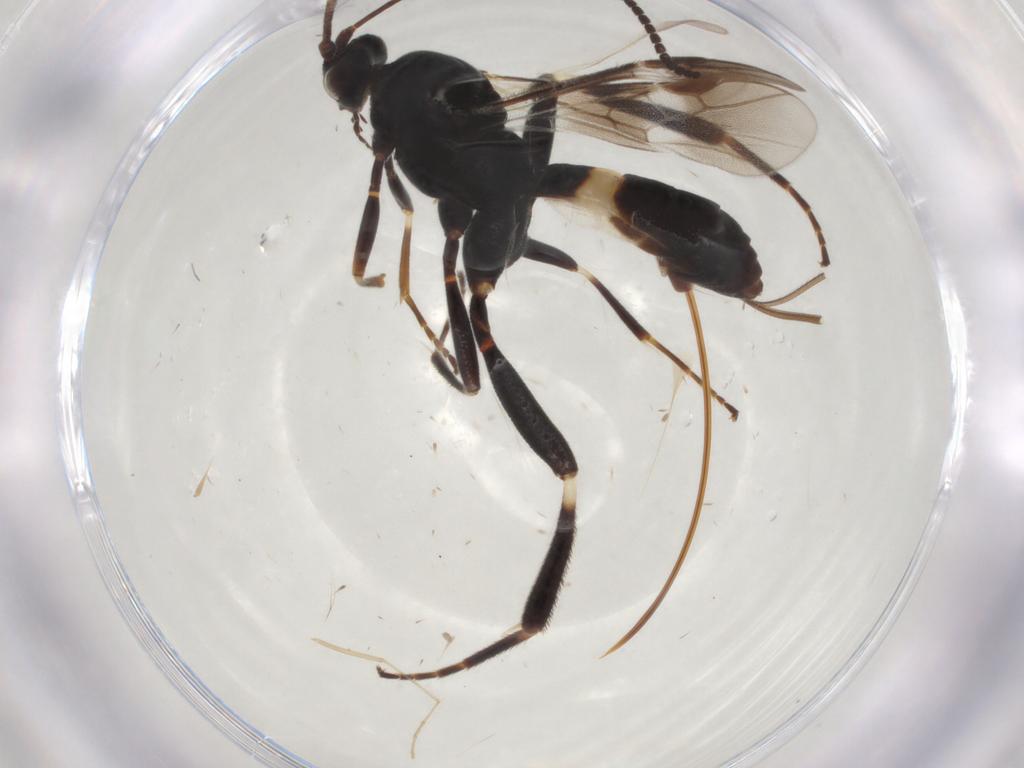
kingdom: Animalia
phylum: Arthropoda
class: Insecta
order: Hymenoptera
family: Braconidae
